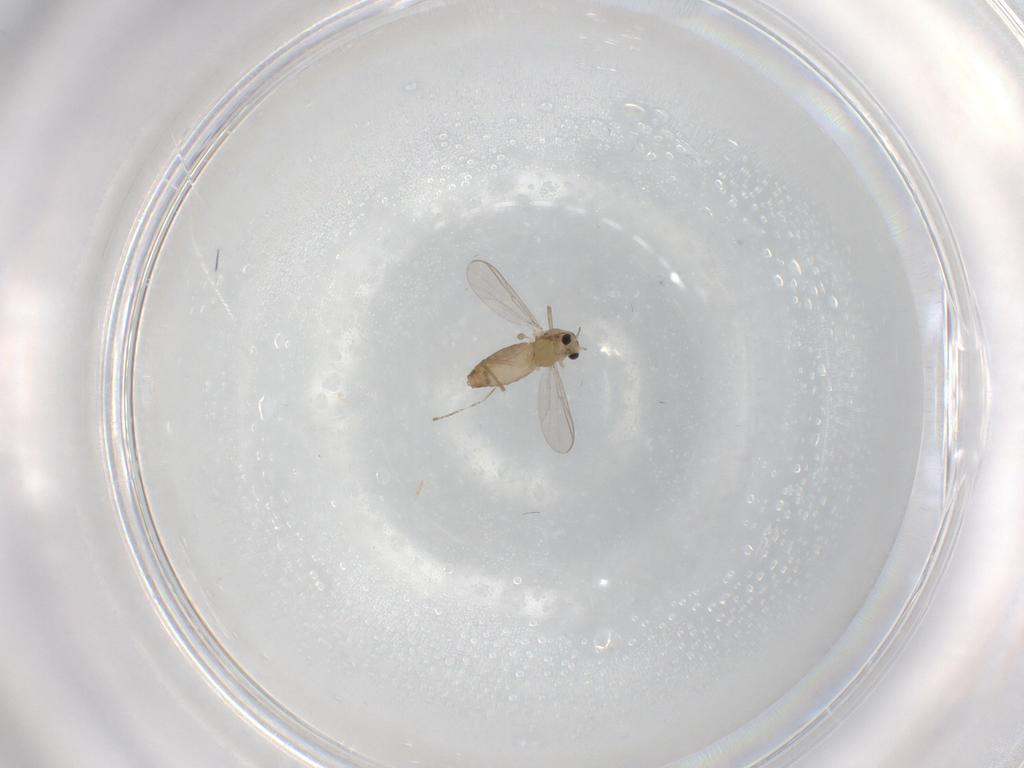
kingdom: Animalia
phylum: Arthropoda
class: Insecta
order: Diptera
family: Chironomidae
